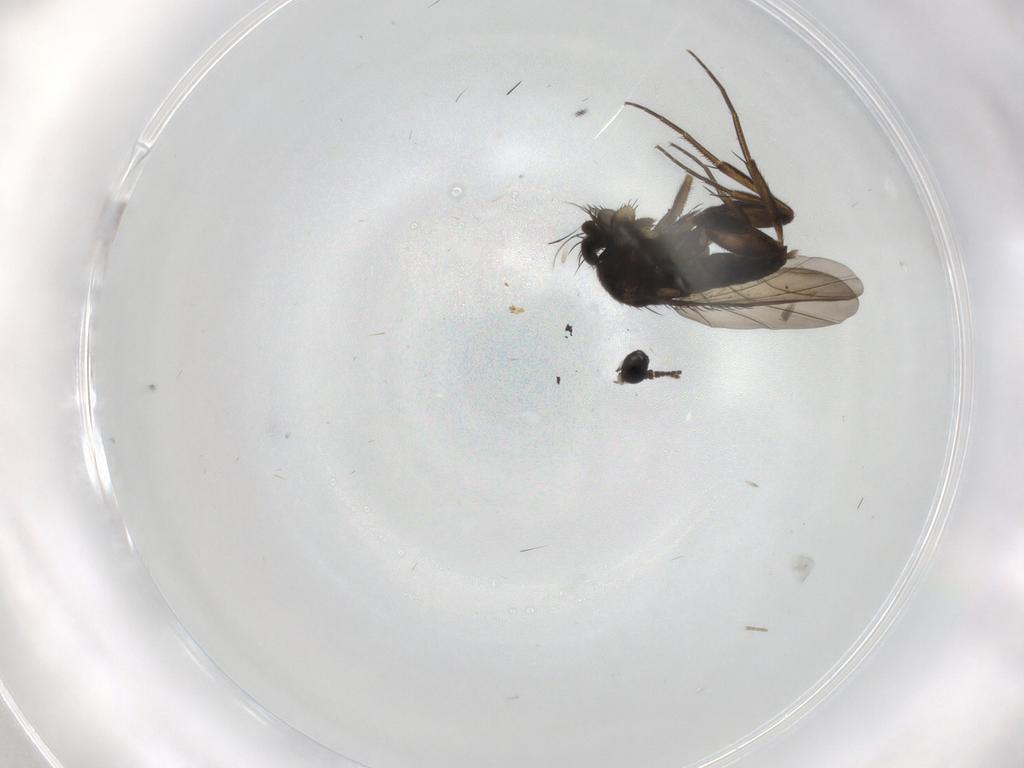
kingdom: Animalia
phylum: Arthropoda
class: Insecta
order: Diptera
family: Phoridae
